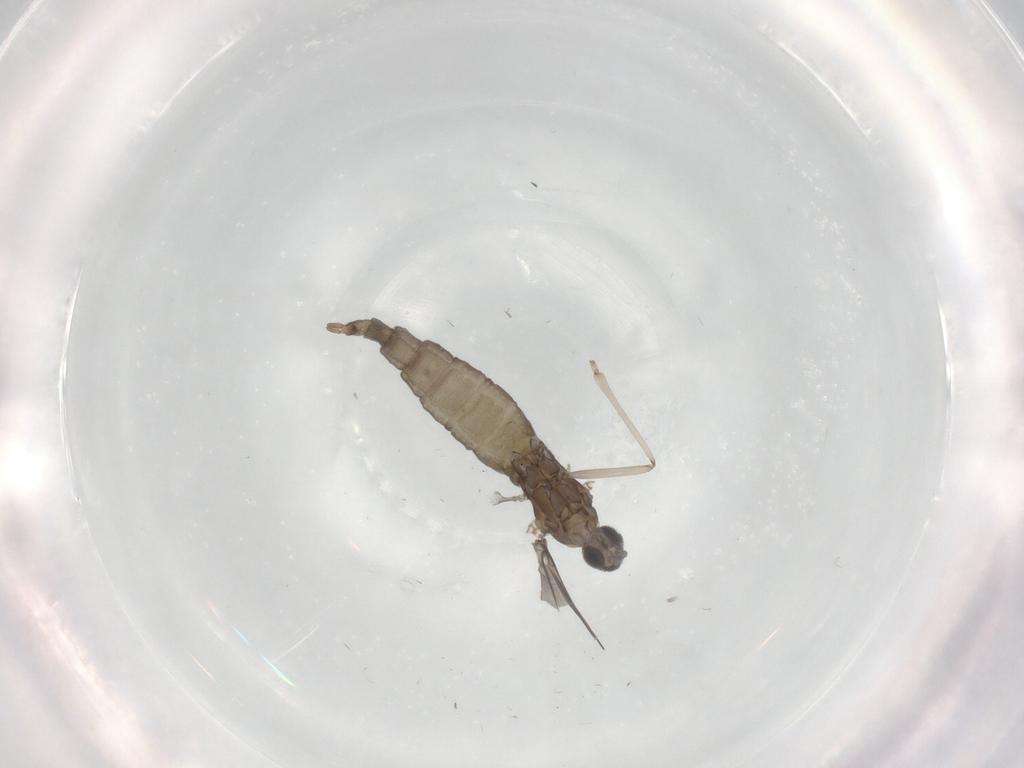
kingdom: Animalia
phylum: Arthropoda
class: Insecta
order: Diptera
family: Cecidomyiidae
